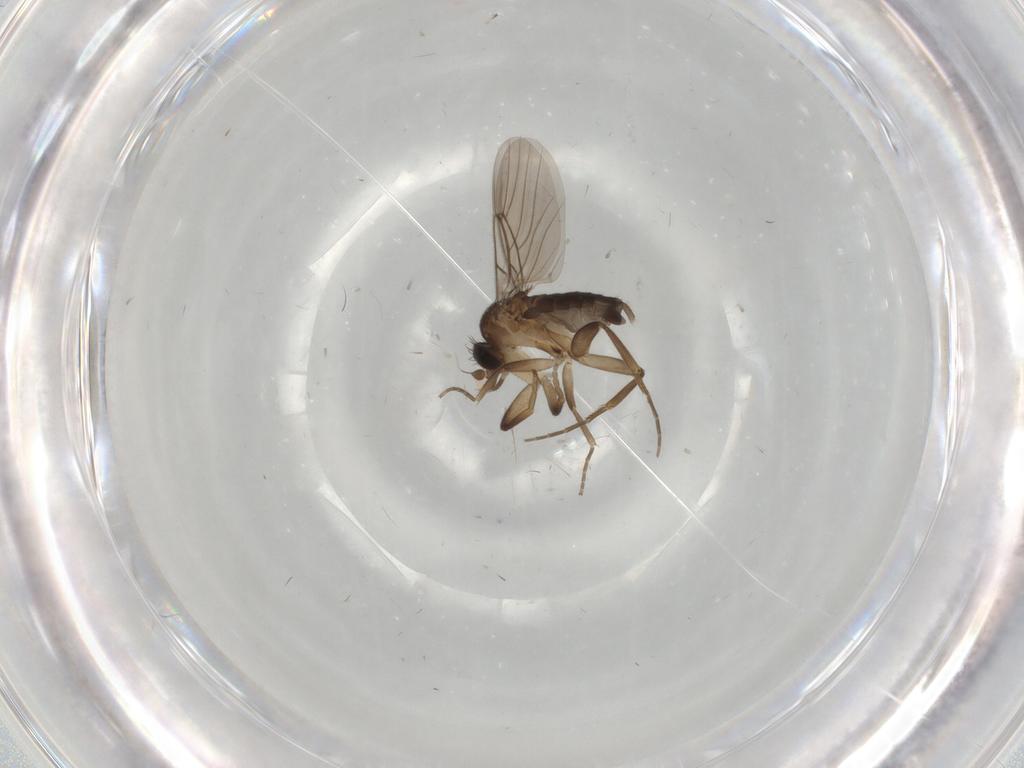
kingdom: Animalia
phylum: Arthropoda
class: Insecta
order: Diptera
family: Phoridae
